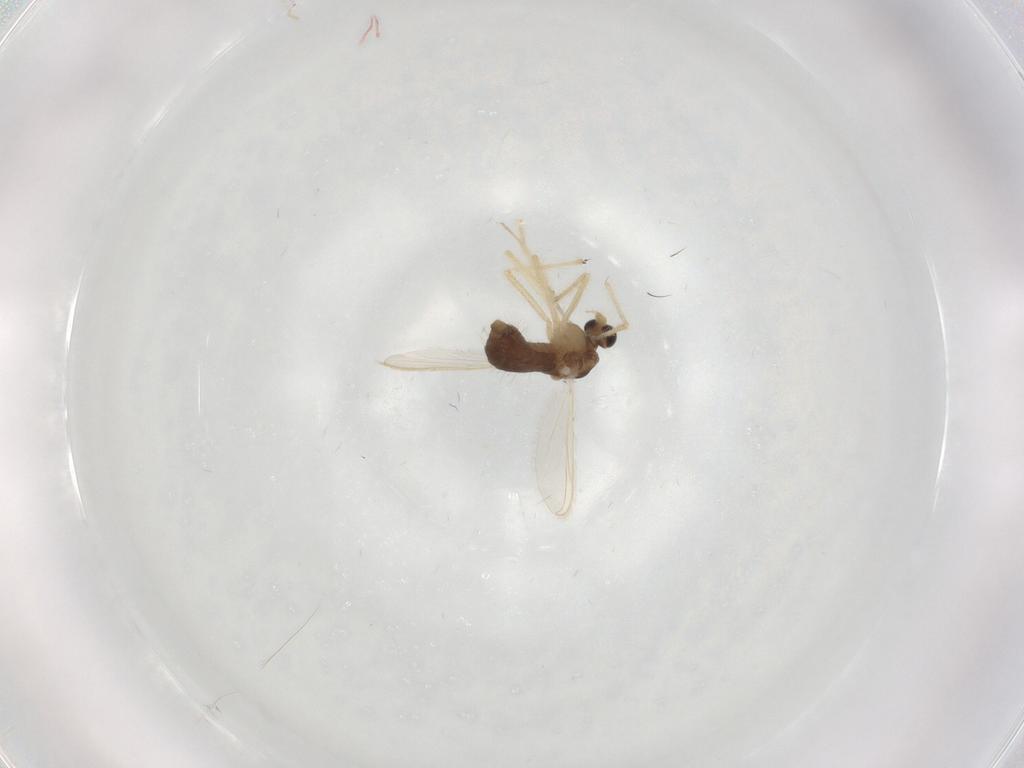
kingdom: Animalia
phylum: Arthropoda
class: Insecta
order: Diptera
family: Chironomidae
